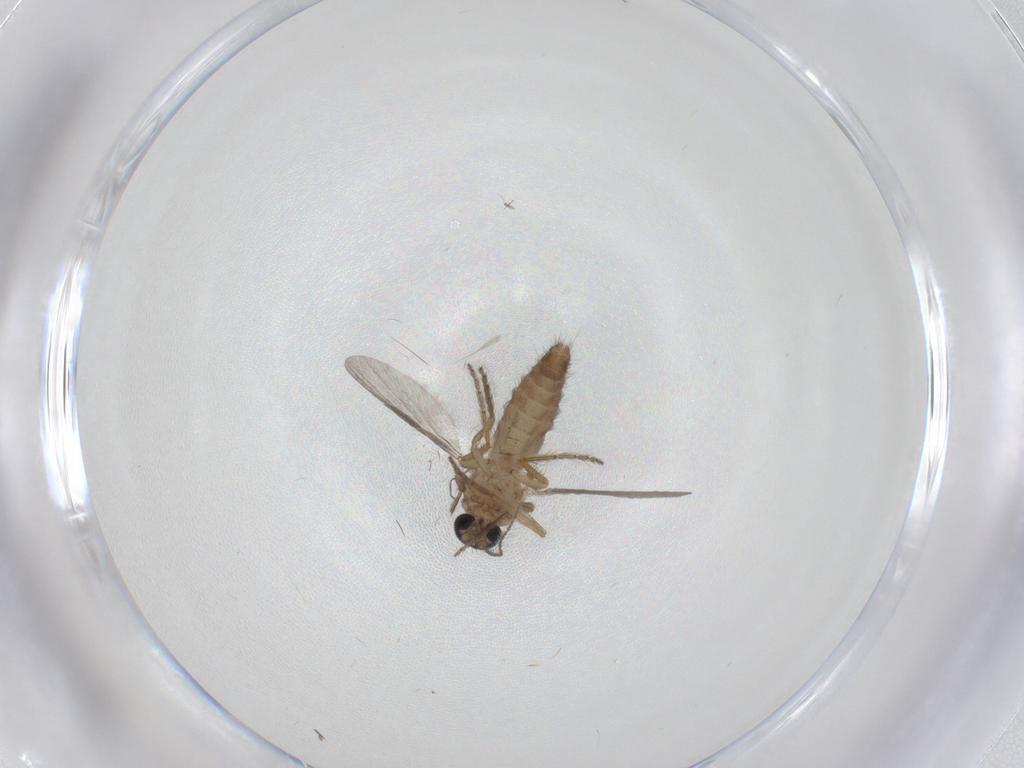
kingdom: Animalia
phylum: Arthropoda
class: Insecta
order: Diptera
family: Ceratopogonidae
